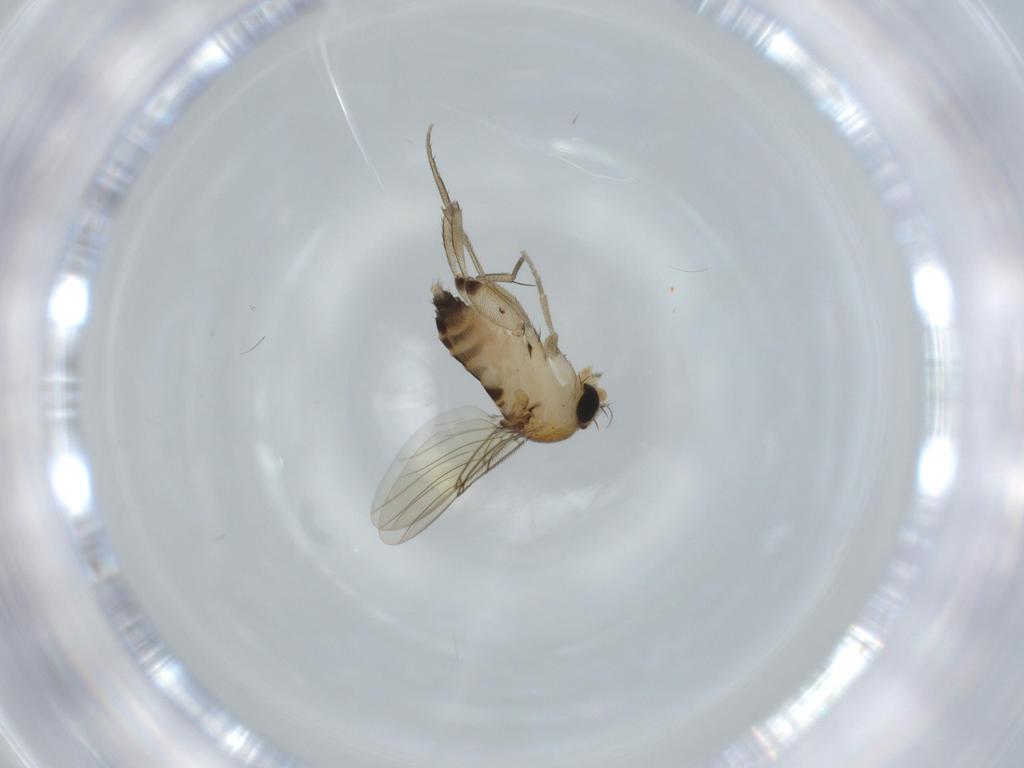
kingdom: Animalia
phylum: Arthropoda
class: Insecta
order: Diptera
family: Phoridae
